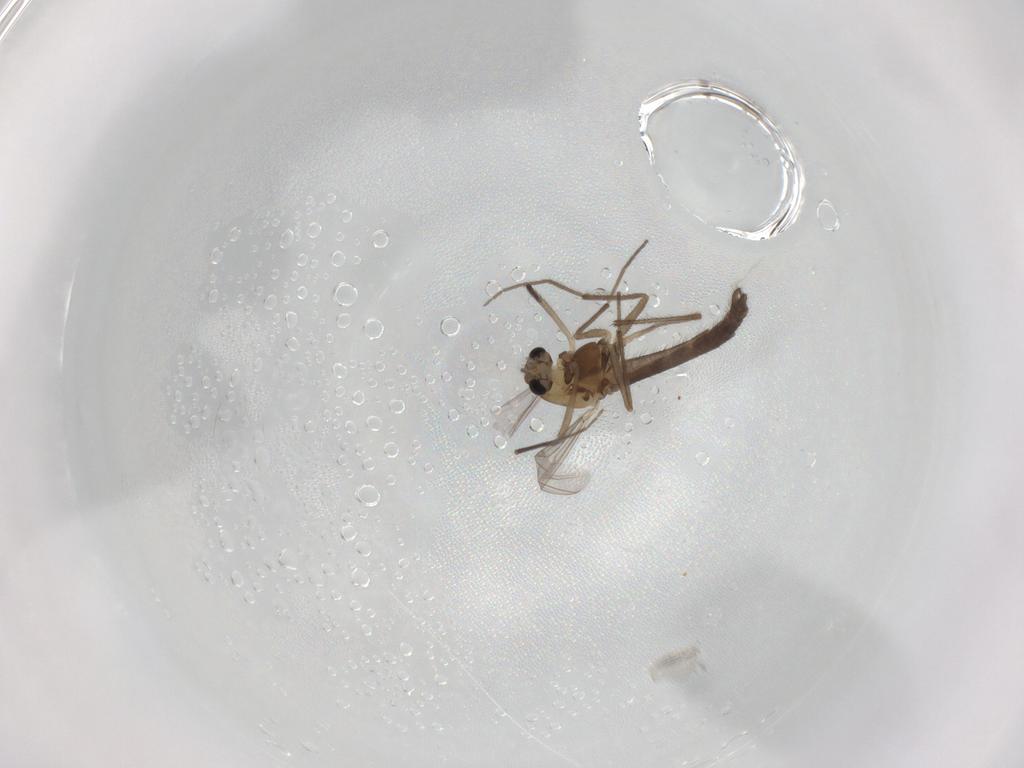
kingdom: Animalia
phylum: Arthropoda
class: Insecta
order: Diptera
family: Chironomidae
